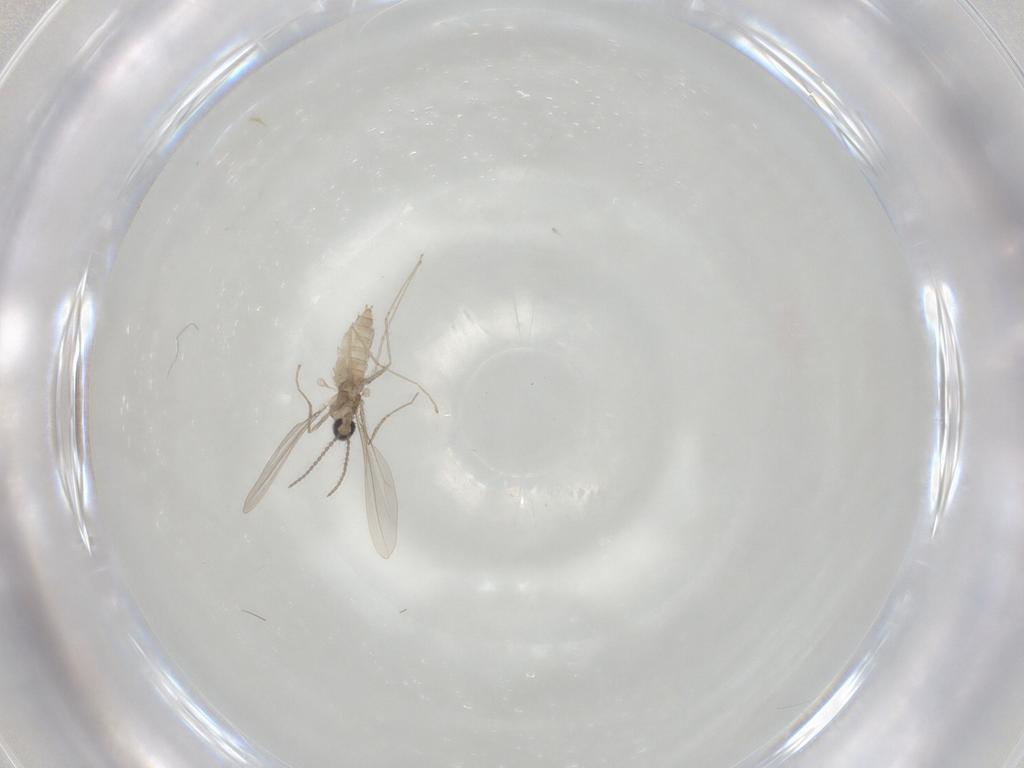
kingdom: Animalia
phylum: Arthropoda
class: Insecta
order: Diptera
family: Cecidomyiidae
